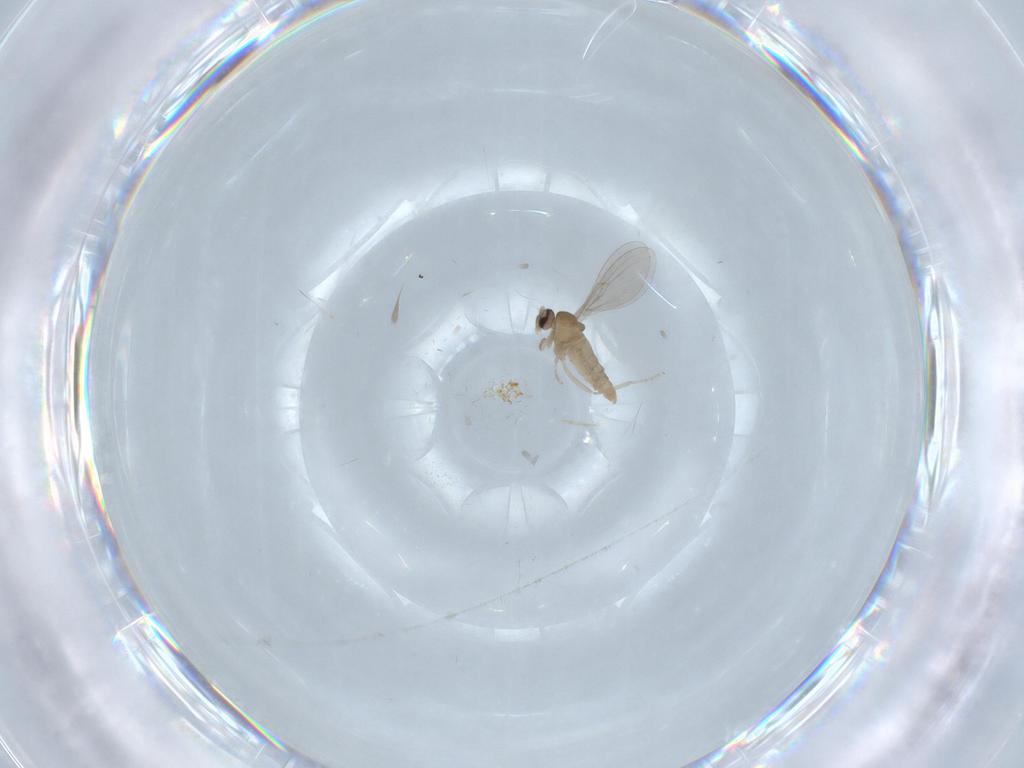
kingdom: Animalia
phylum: Arthropoda
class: Insecta
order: Diptera
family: Cecidomyiidae
